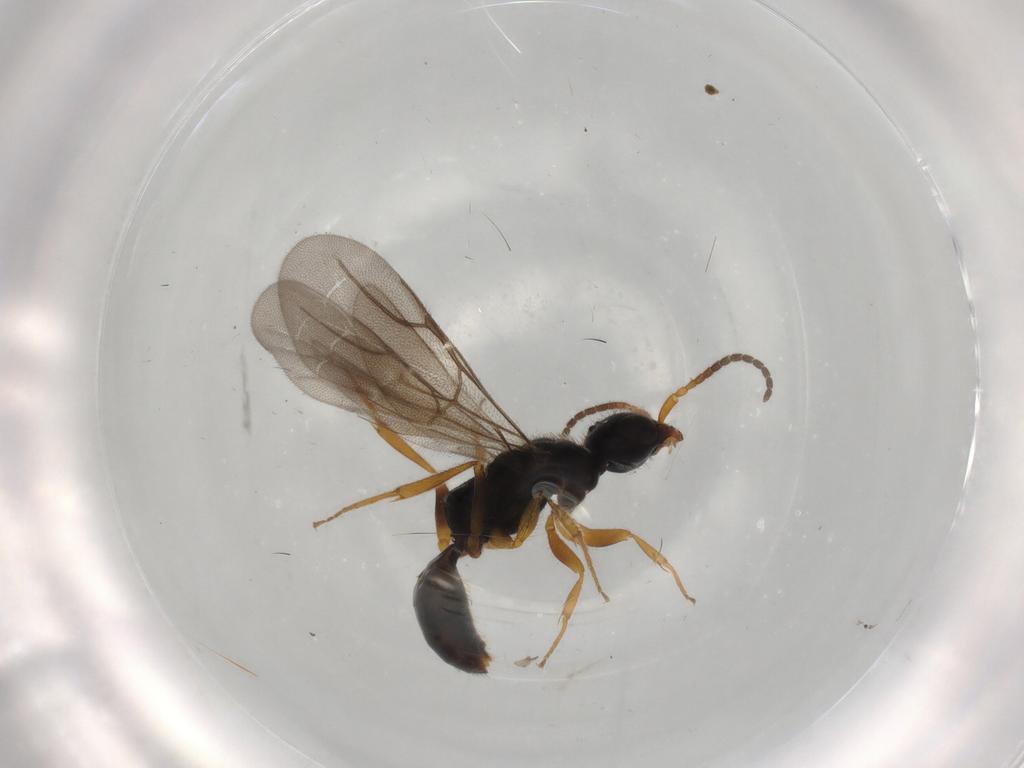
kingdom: Animalia
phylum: Arthropoda
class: Insecta
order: Hymenoptera
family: Bethylidae
